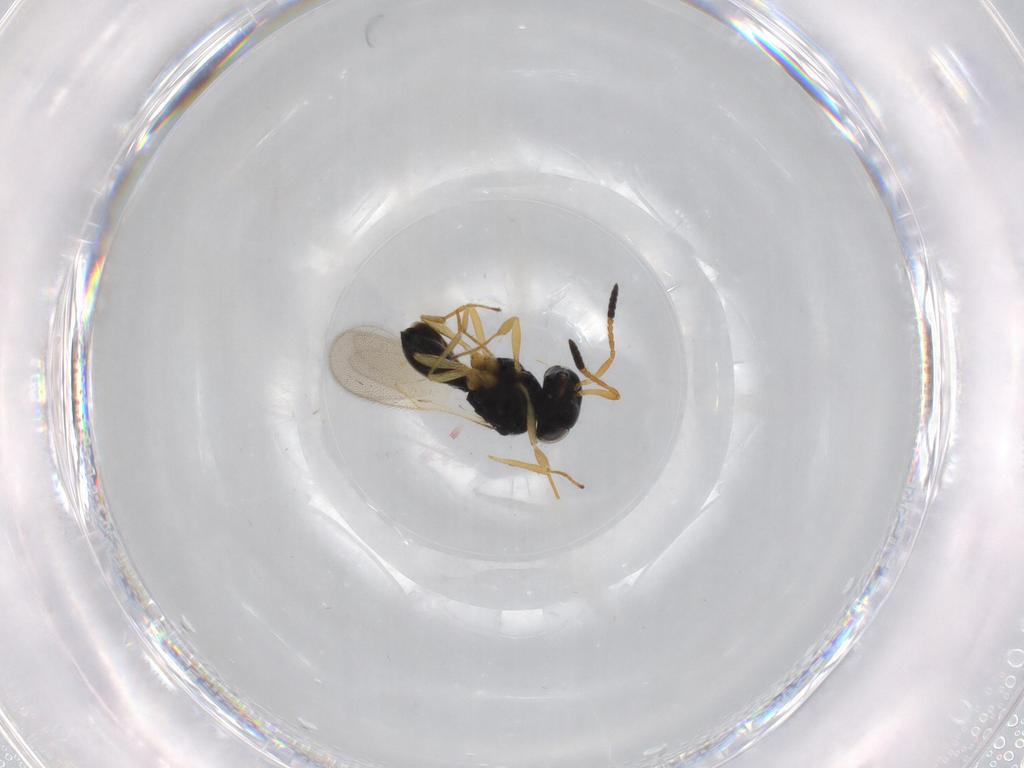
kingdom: Animalia
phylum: Arthropoda
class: Insecta
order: Hymenoptera
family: Scelionidae
